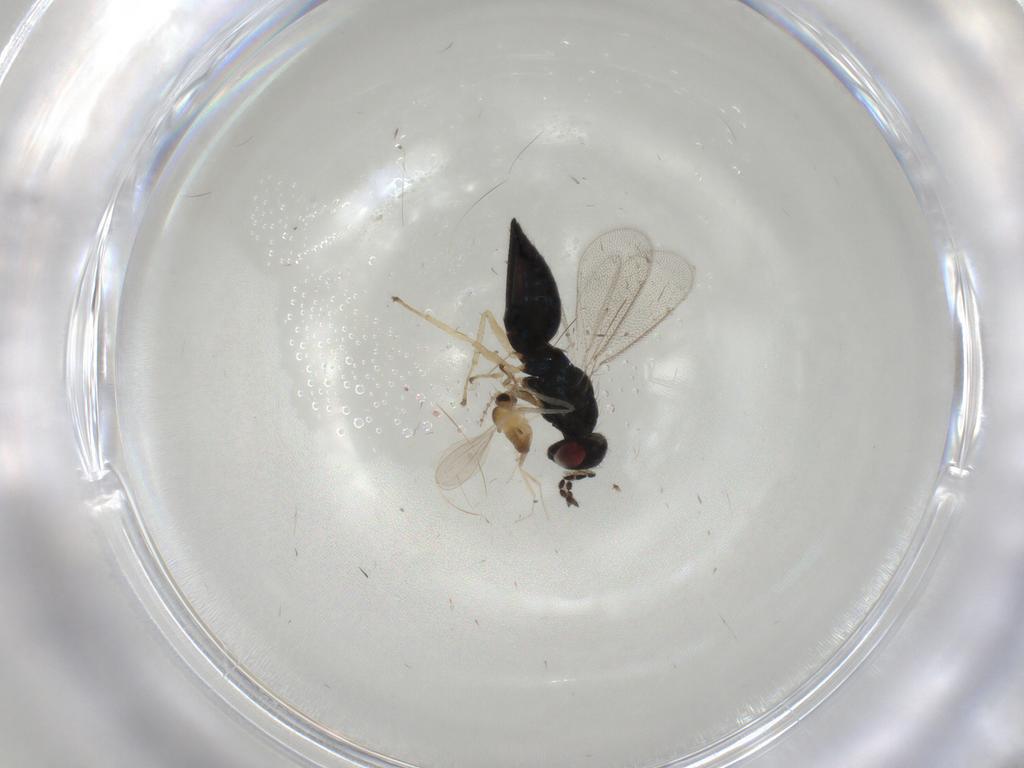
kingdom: Animalia
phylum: Arthropoda
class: Insecta
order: Diptera
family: Cecidomyiidae
